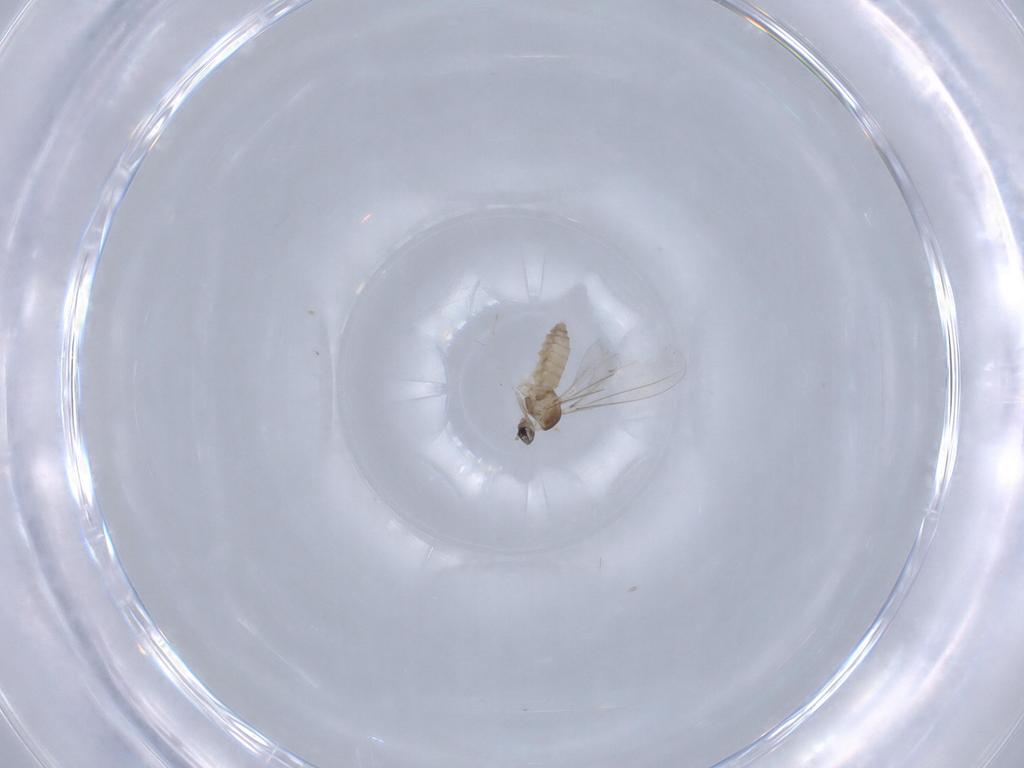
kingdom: Animalia
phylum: Arthropoda
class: Insecta
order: Diptera
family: Cecidomyiidae
